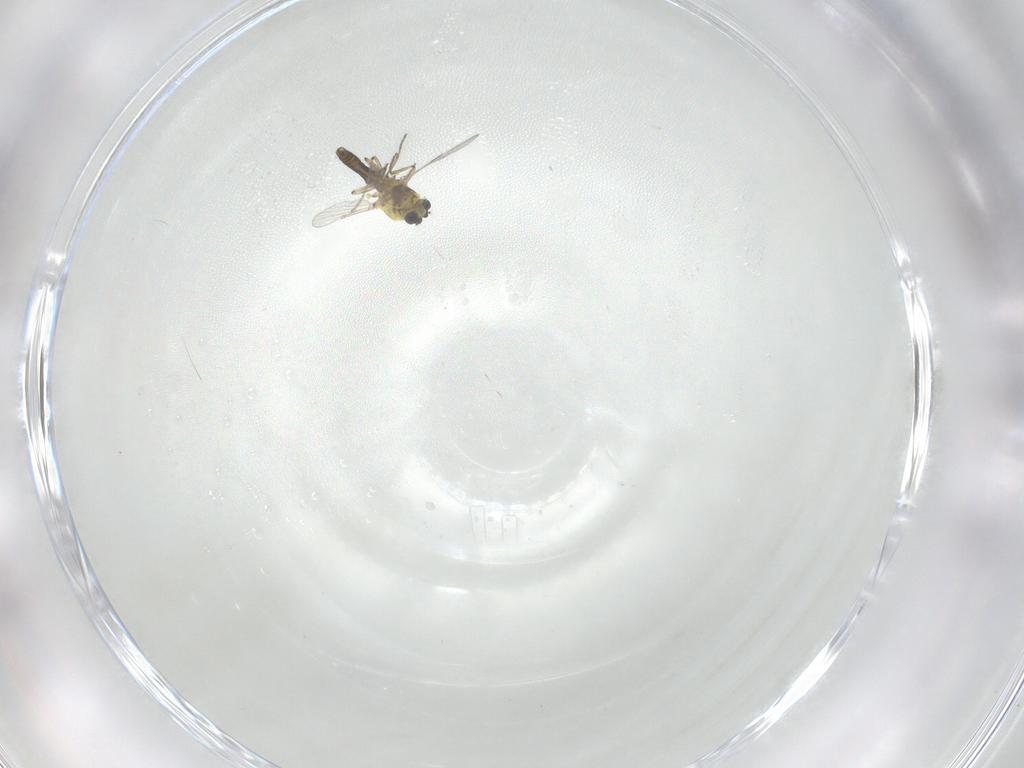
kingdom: Animalia
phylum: Arthropoda
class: Insecta
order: Diptera
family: Ceratopogonidae
